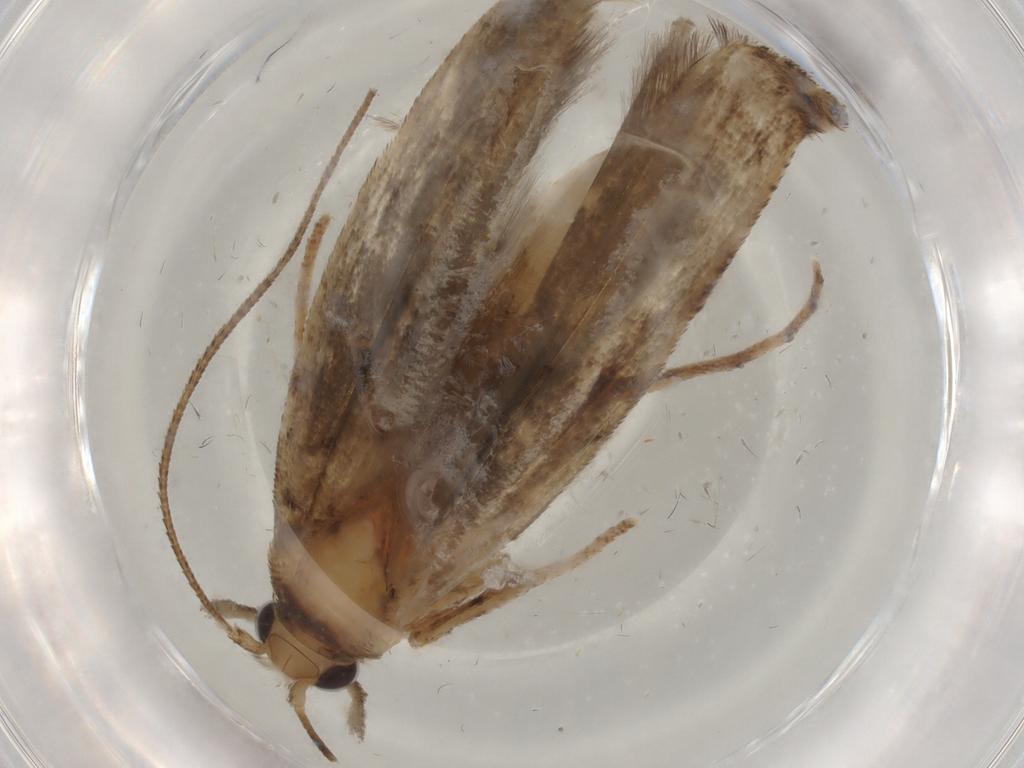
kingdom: Animalia
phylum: Arthropoda
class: Insecta
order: Lepidoptera
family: Yponomeutidae
